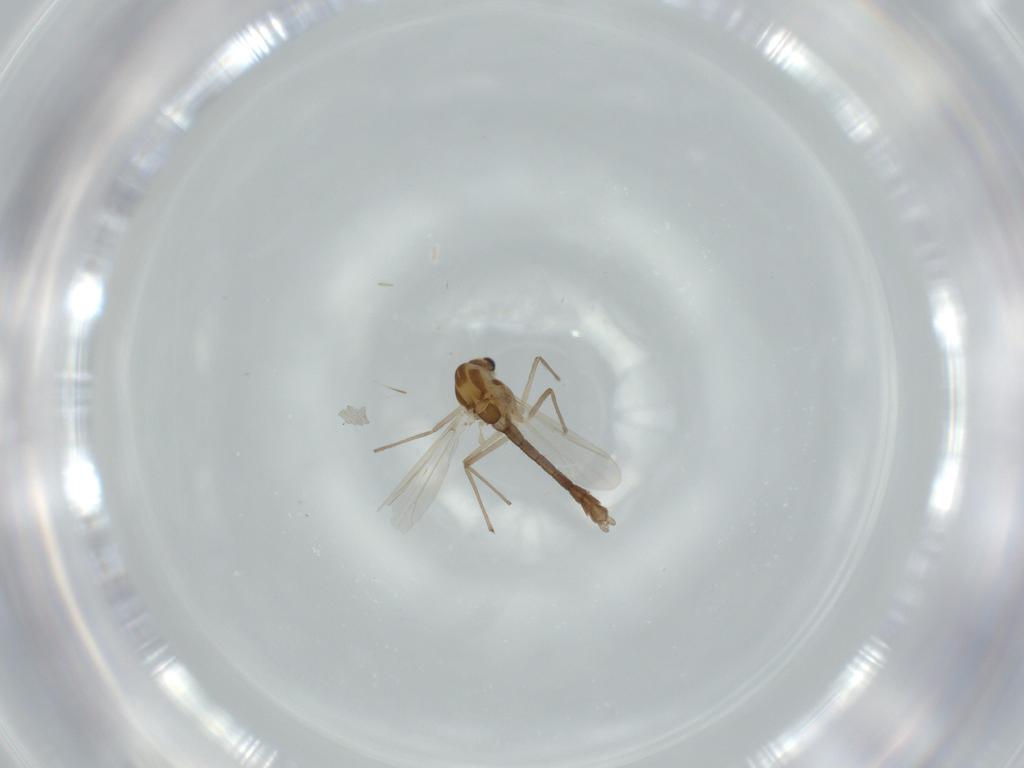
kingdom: Animalia
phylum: Arthropoda
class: Insecta
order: Diptera
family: Chironomidae
